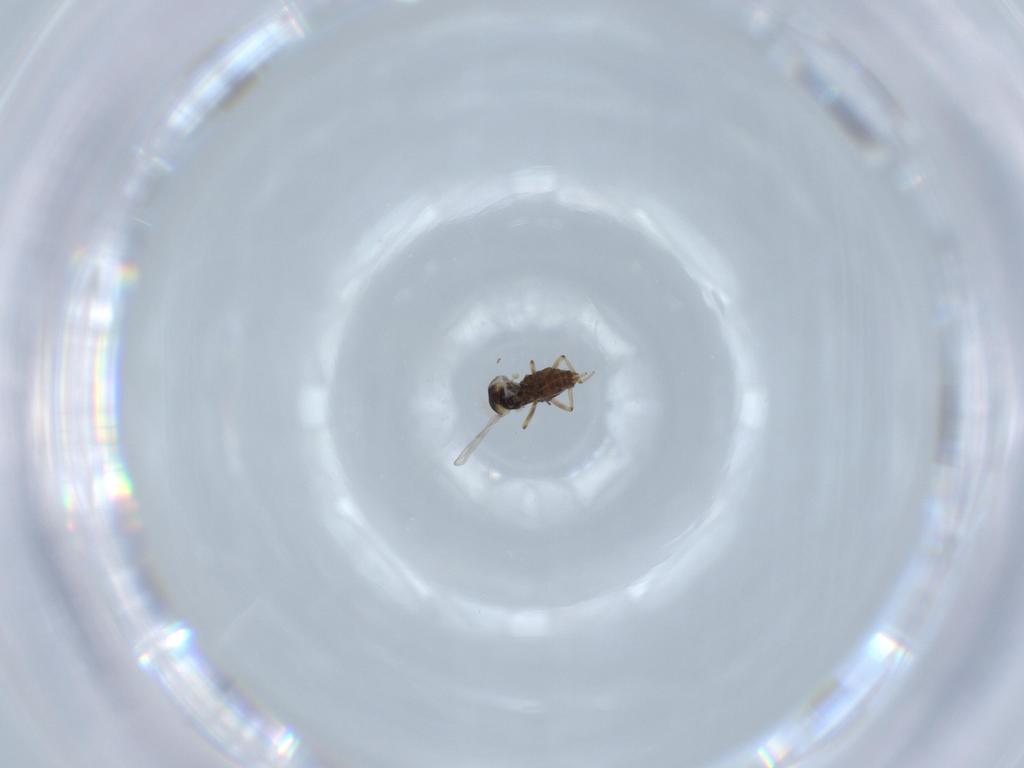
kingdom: Animalia
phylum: Arthropoda
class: Insecta
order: Diptera
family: Ceratopogonidae
